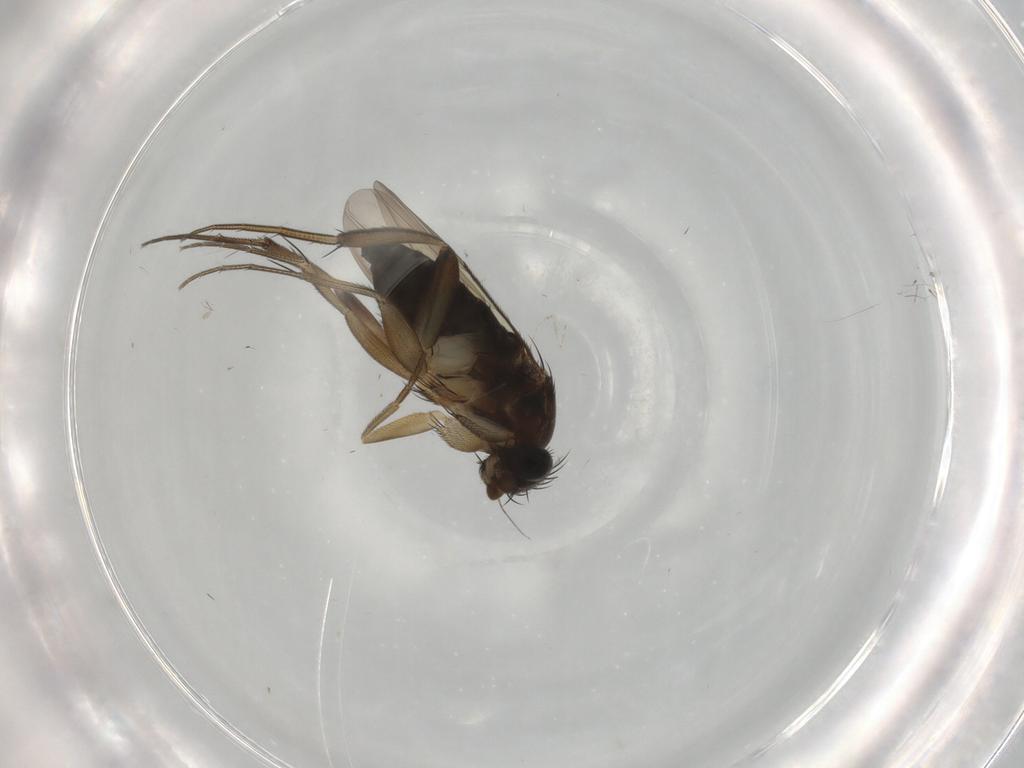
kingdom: Animalia
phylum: Arthropoda
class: Insecta
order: Diptera
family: Phoridae
